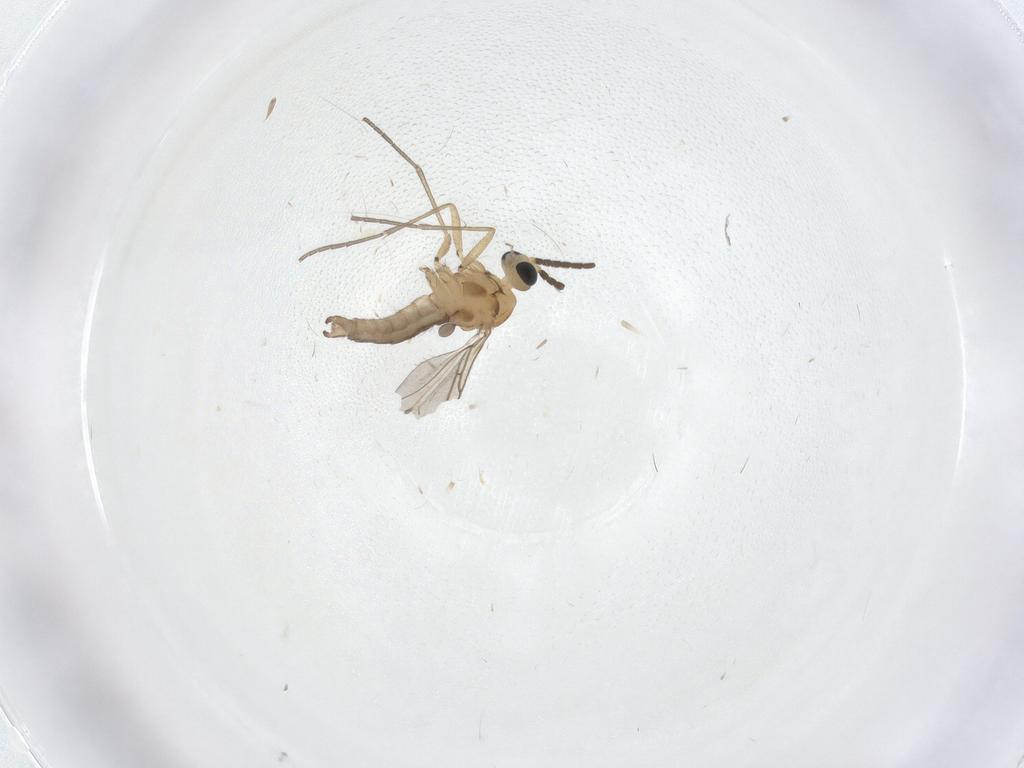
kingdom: Animalia
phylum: Arthropoda
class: Insecta
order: Diptera
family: Sciaridae
